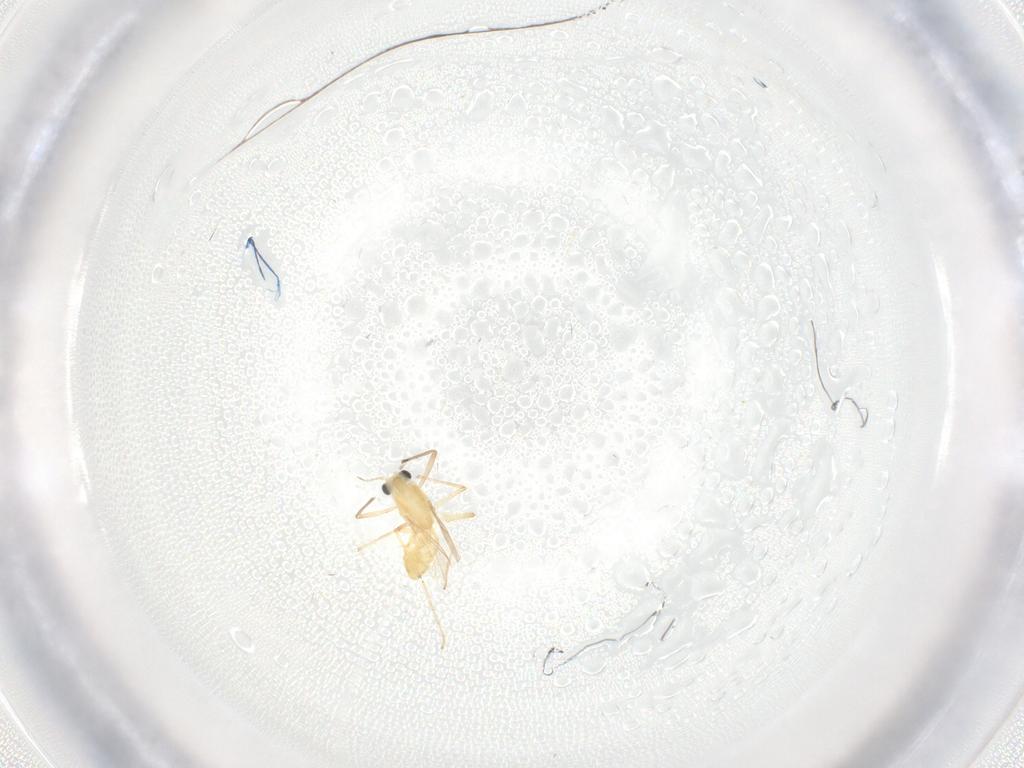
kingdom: Animalia
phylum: Arthropoda
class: Insecta
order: Diptera
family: Chironomidae
